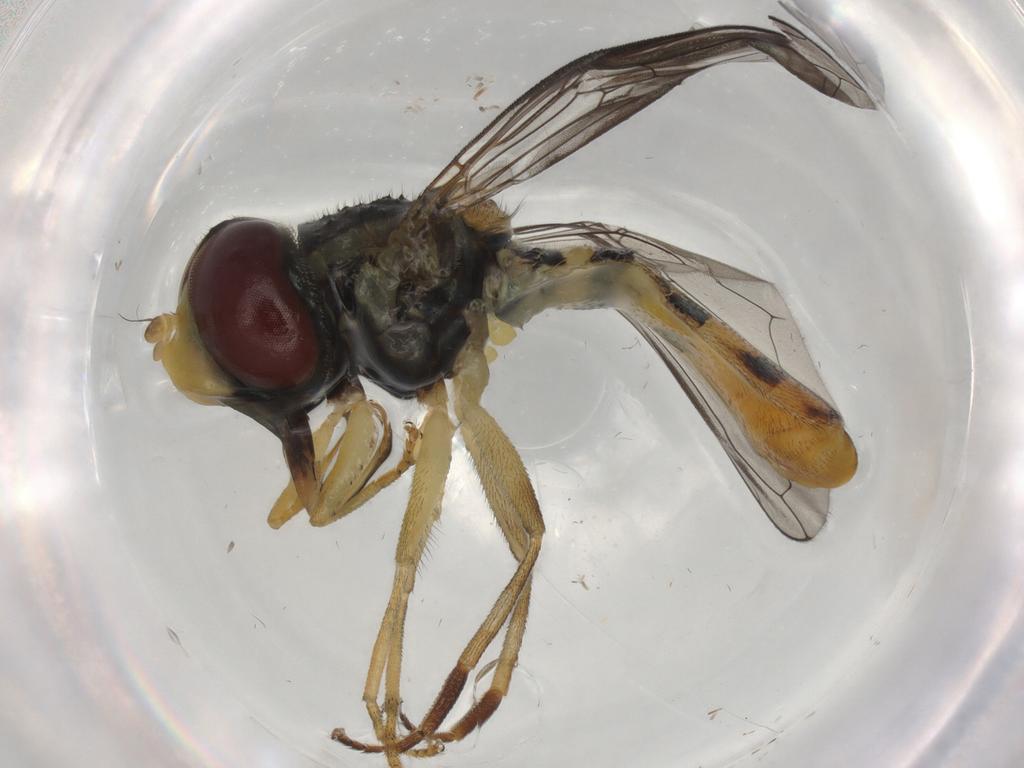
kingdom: Animalia
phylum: Arthropoda
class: Insecta
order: Diptera
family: Syrphidae
